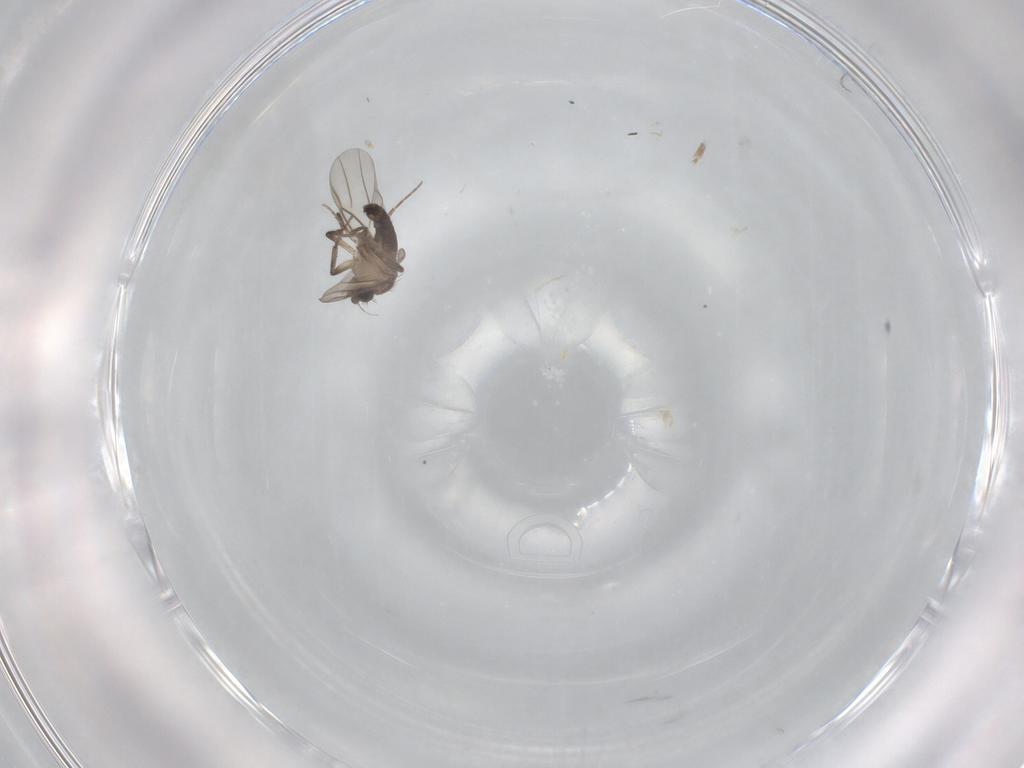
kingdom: Animalia
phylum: Arthropoda
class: Insecta
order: Diptera
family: Phoridae
